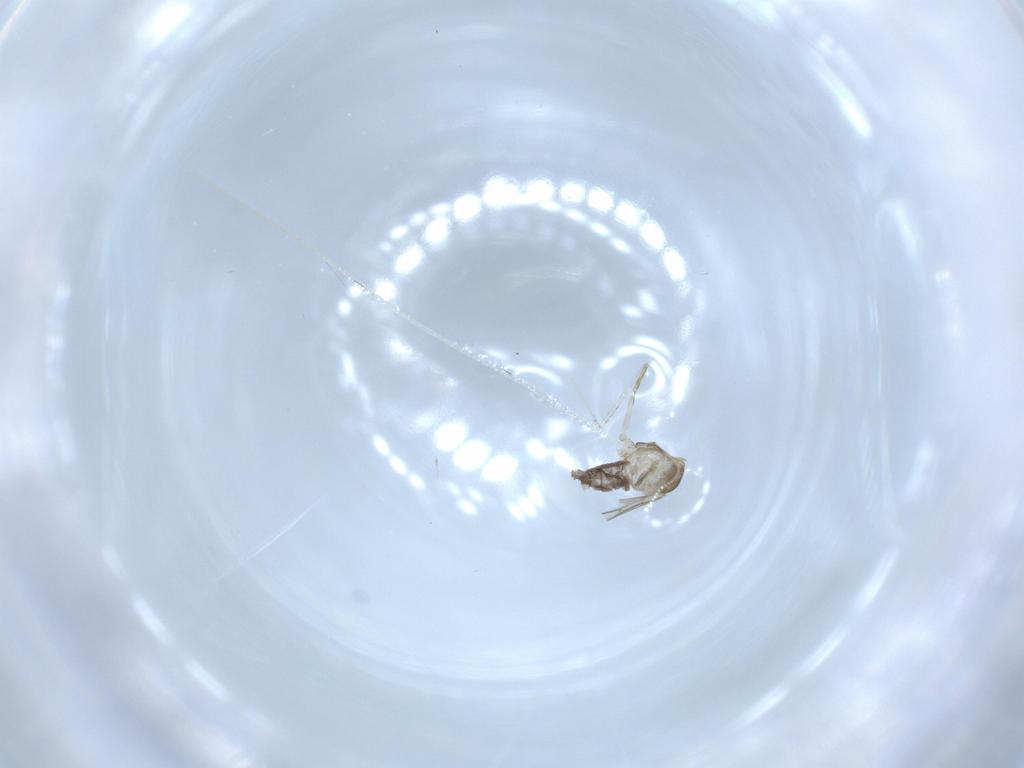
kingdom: Animalia
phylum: Arthropoda
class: Insecta
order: Diptera
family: Cecidomyiidae
